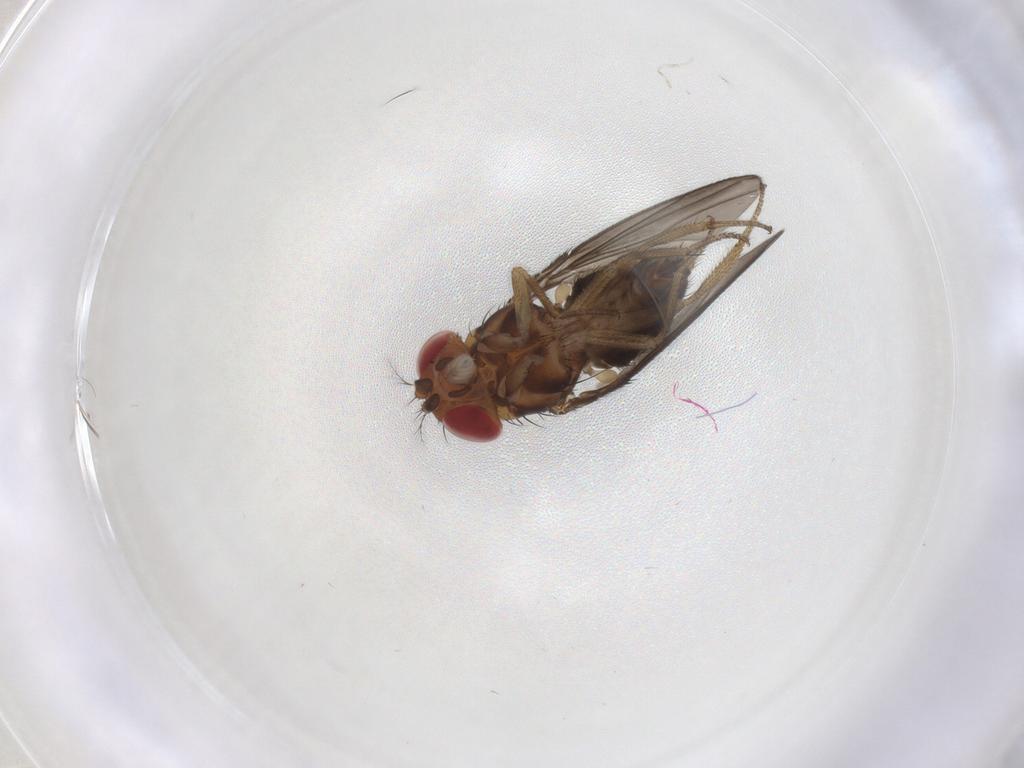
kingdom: Animalia
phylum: Arthropoda
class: Insecta
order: Diptera
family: Drosophilidae
